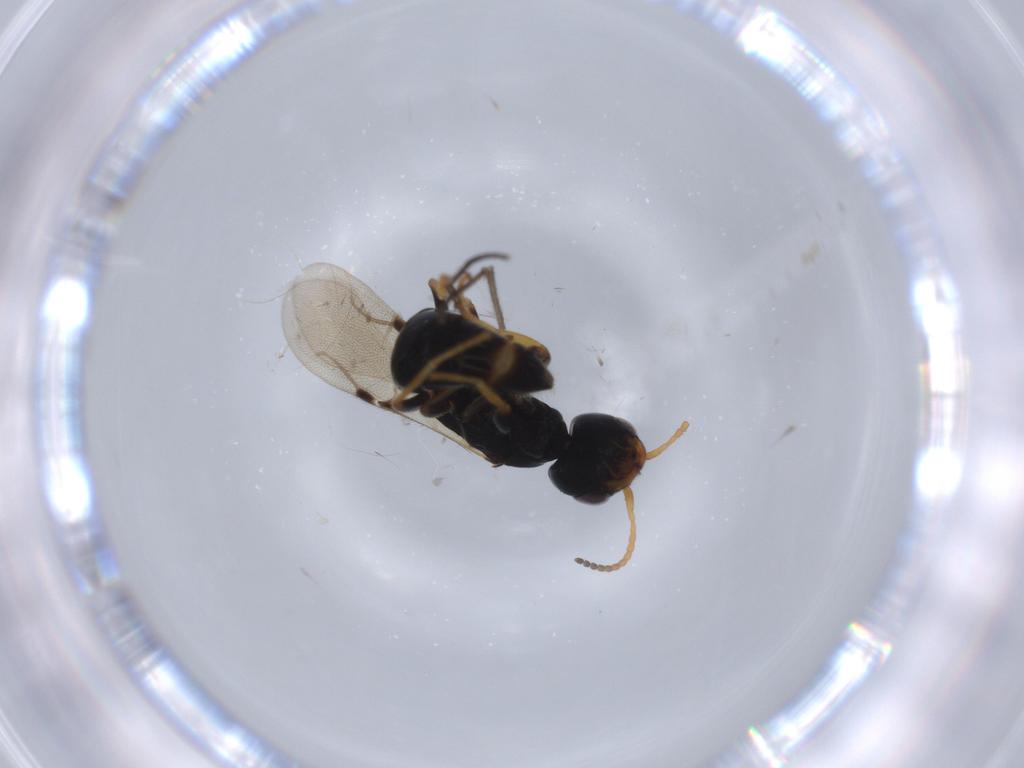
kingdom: Animalia
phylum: Arthropoda
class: Insecta
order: Hymenoptera
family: Bethylidae
